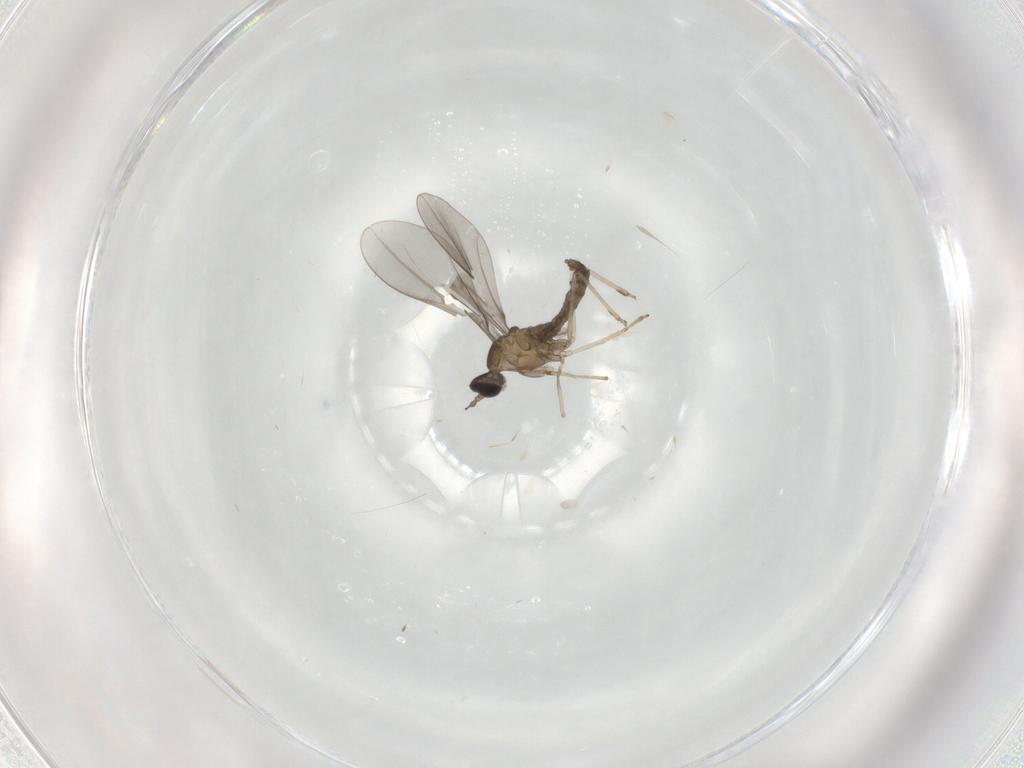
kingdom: Animalia
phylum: Arthropoda
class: Insecta
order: Diptera
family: Cecidomyiidae
